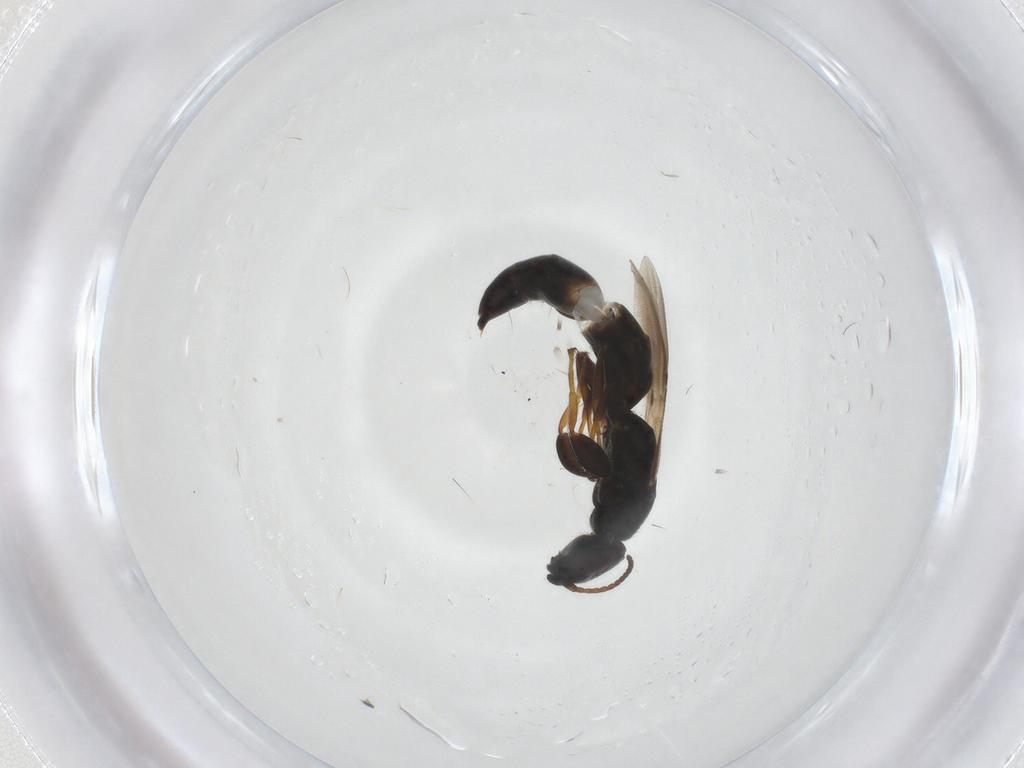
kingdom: Animalia
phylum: Arthropoda
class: Insecta
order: Hymenoptera
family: Bethylidae
